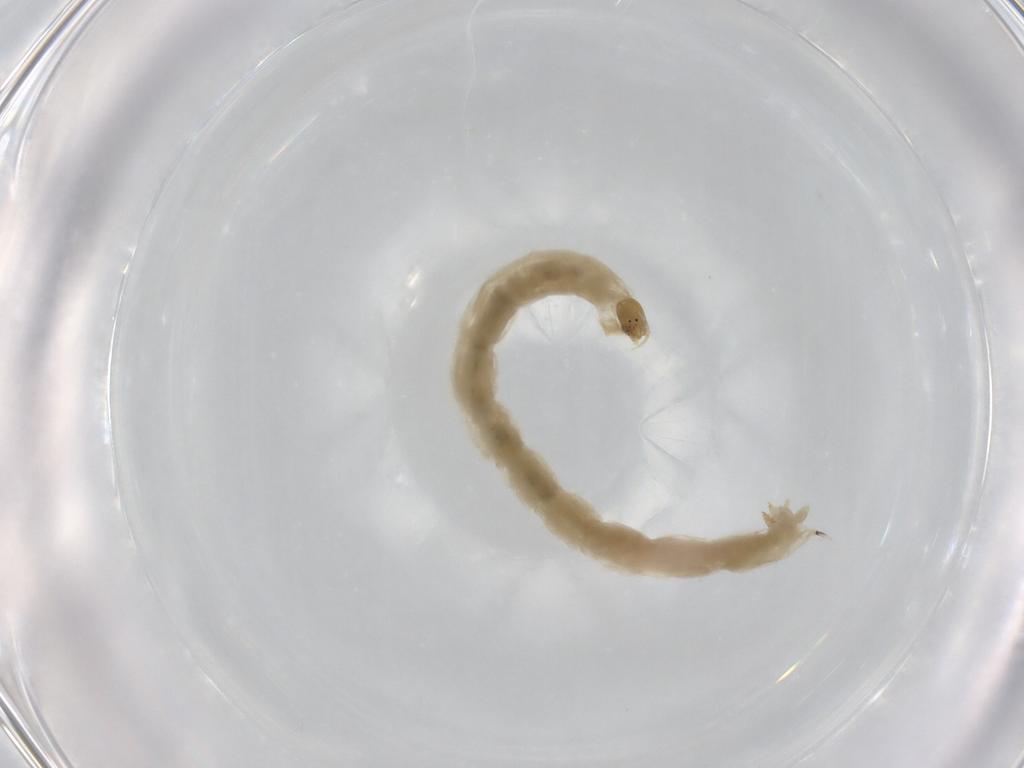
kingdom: Animalia
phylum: Arthropoda
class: Insecta
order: Diptera
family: Chironomidae
